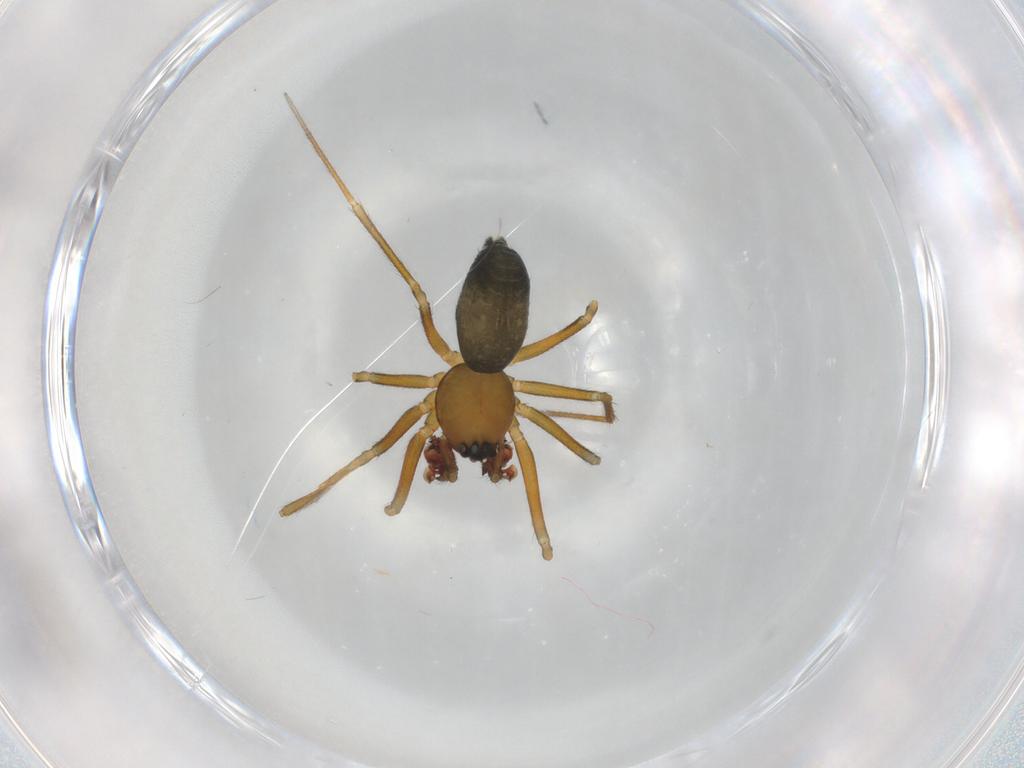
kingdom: Animalia
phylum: Arthropoda
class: Arachnida
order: Araneae
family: Linyphiidae
